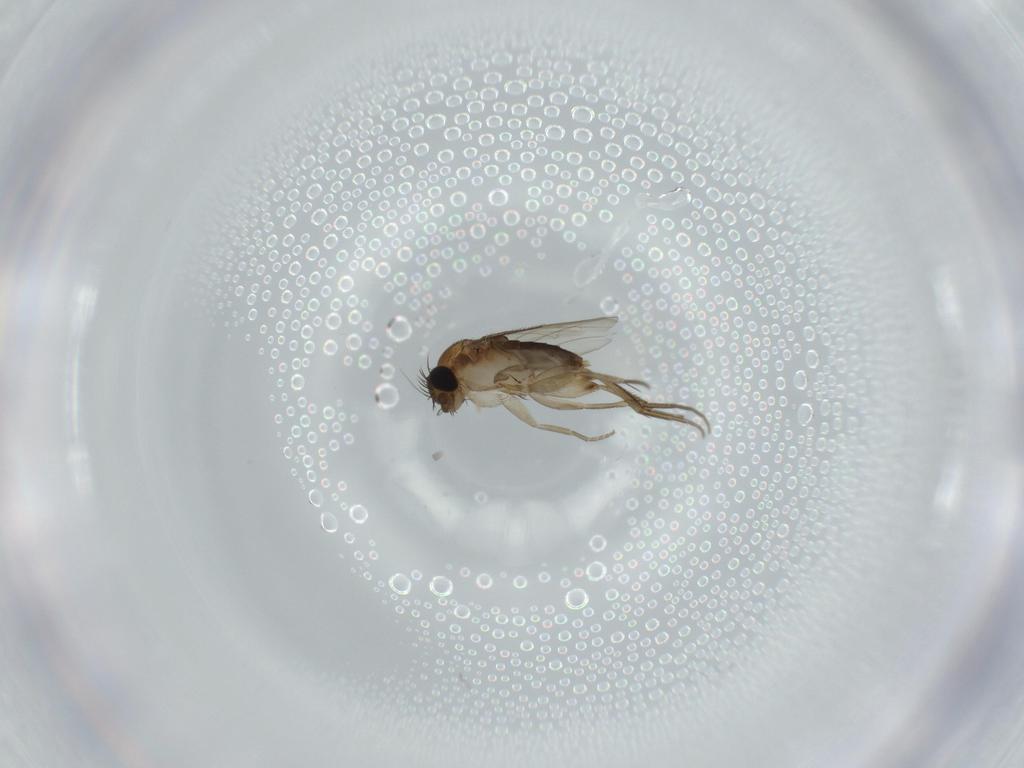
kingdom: Animalia
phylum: Arthropoda
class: Insecta
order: Diptera
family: Phoridae
